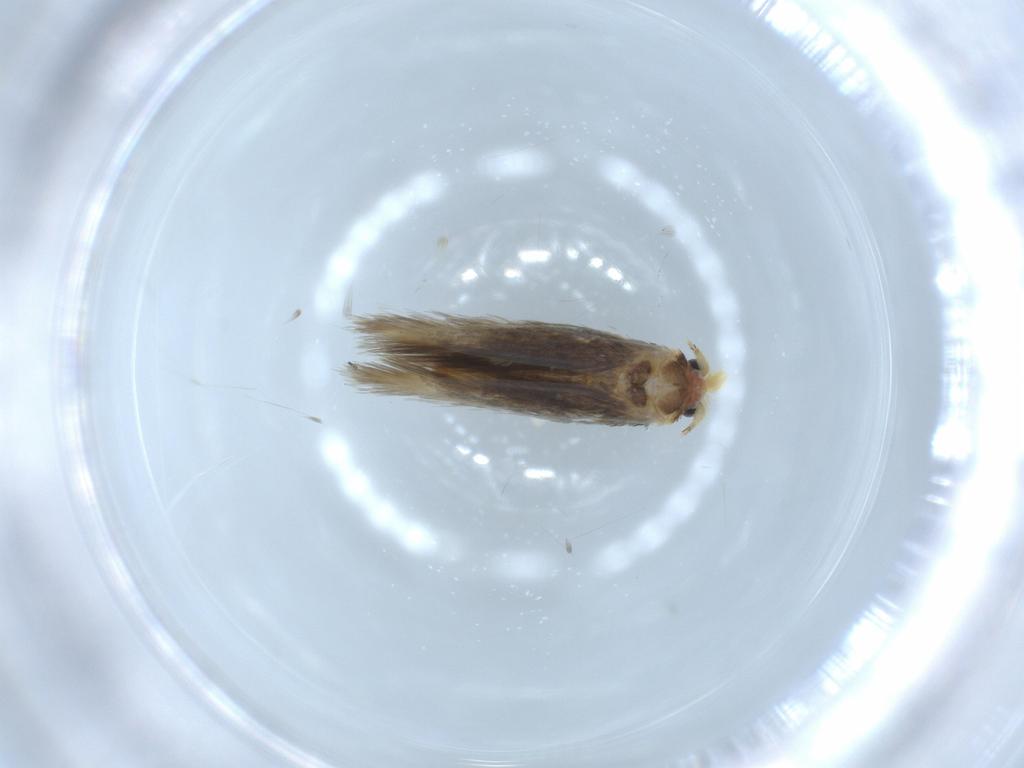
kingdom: Animalia
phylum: Arthropoda
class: Insecta
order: Lepidoptera
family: Nepticulidae
